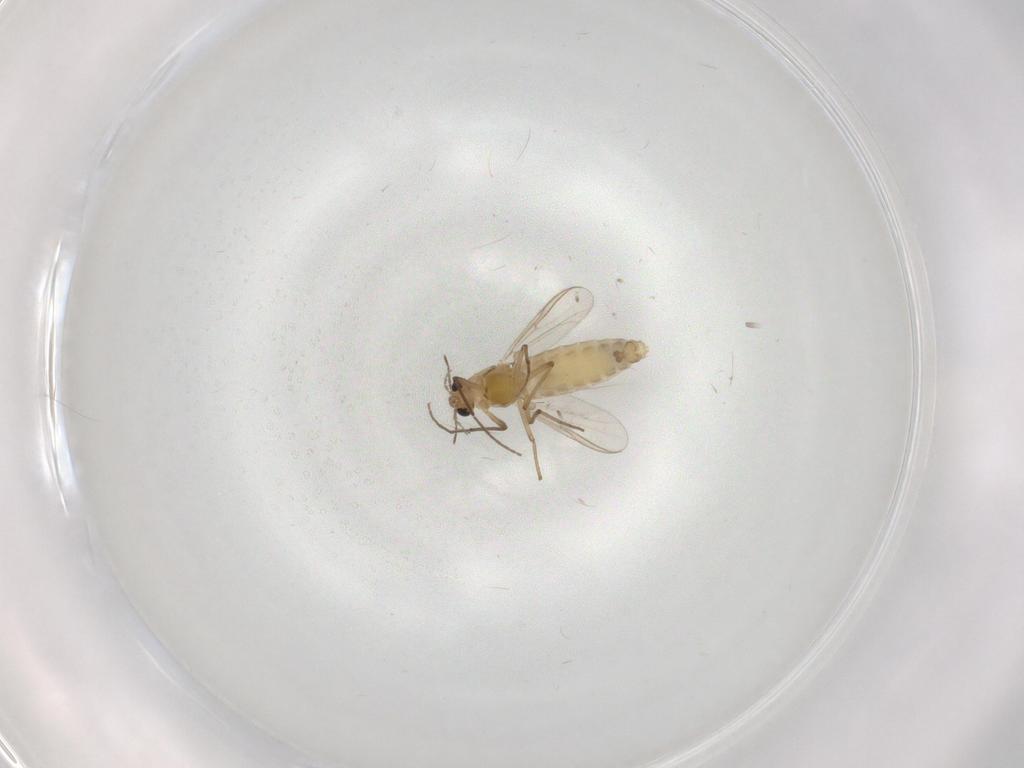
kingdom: Animalia
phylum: Arthropoda
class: Insecta
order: Diptera
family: Chironomidae
